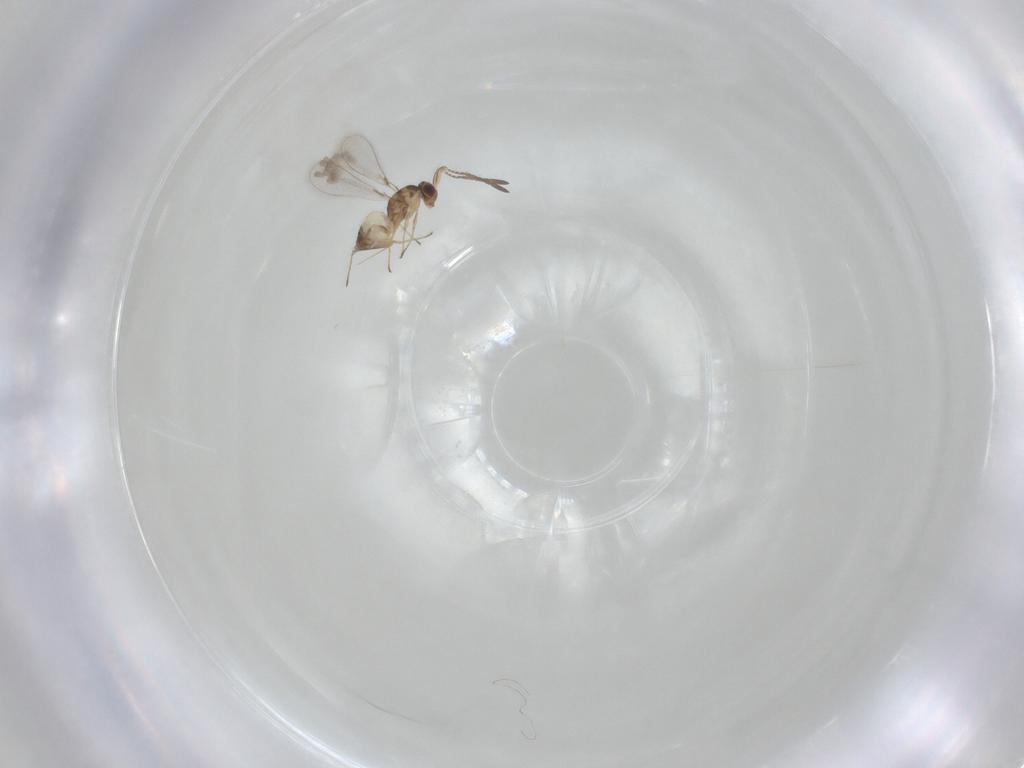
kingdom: Animalia
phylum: Arthropoda
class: Insecta
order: Hymenoptera
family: Mymaridae
